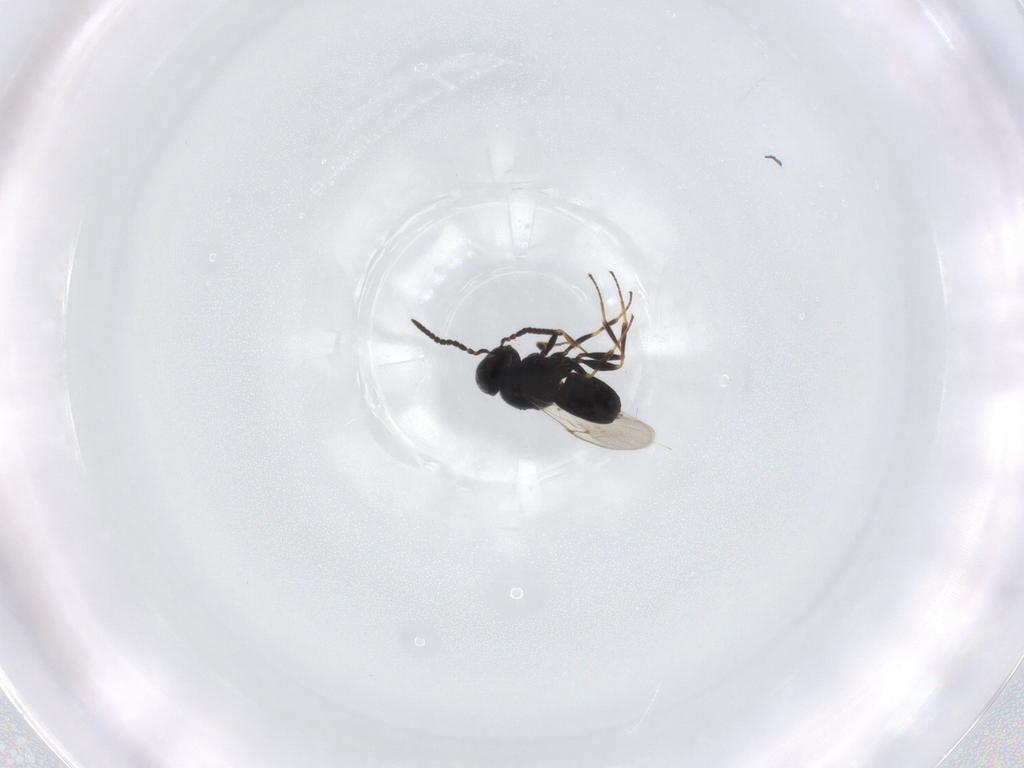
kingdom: Animalia
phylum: Arthropoda
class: Insecta
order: Hymenoptera
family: Scelionidae
